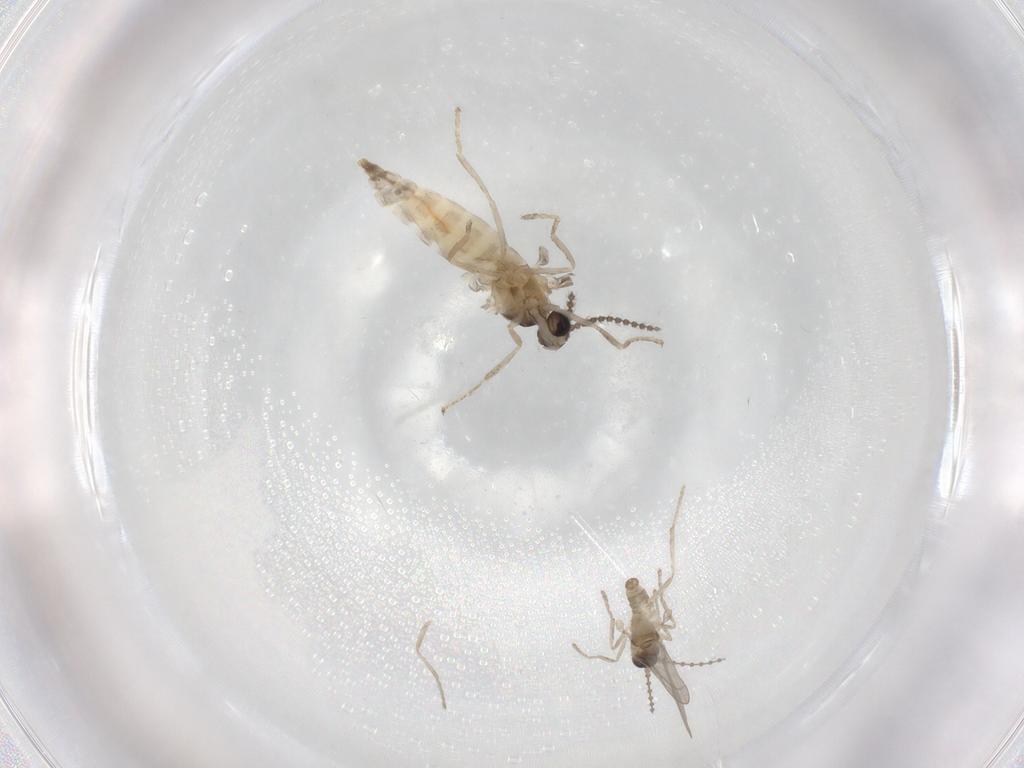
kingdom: Animalia
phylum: Arthropoda
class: Insecta
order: Diptera
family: Cecidomyiidae
